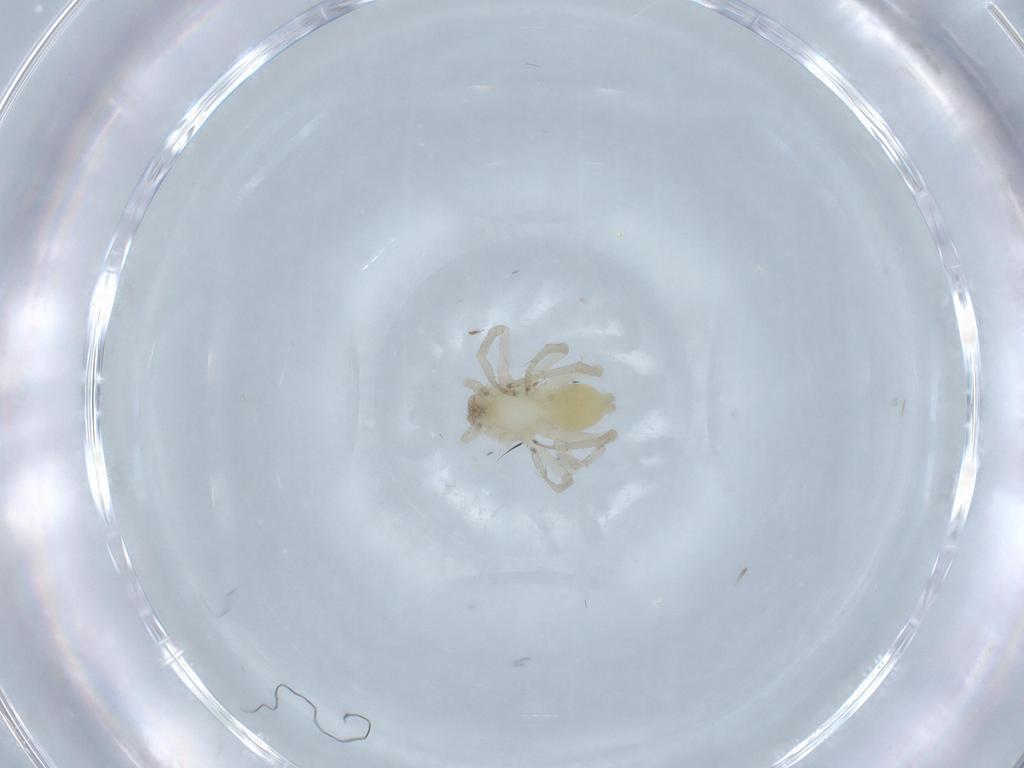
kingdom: Animalia
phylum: Arthropoda
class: Arachnida
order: Araneae
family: Clubionidae
